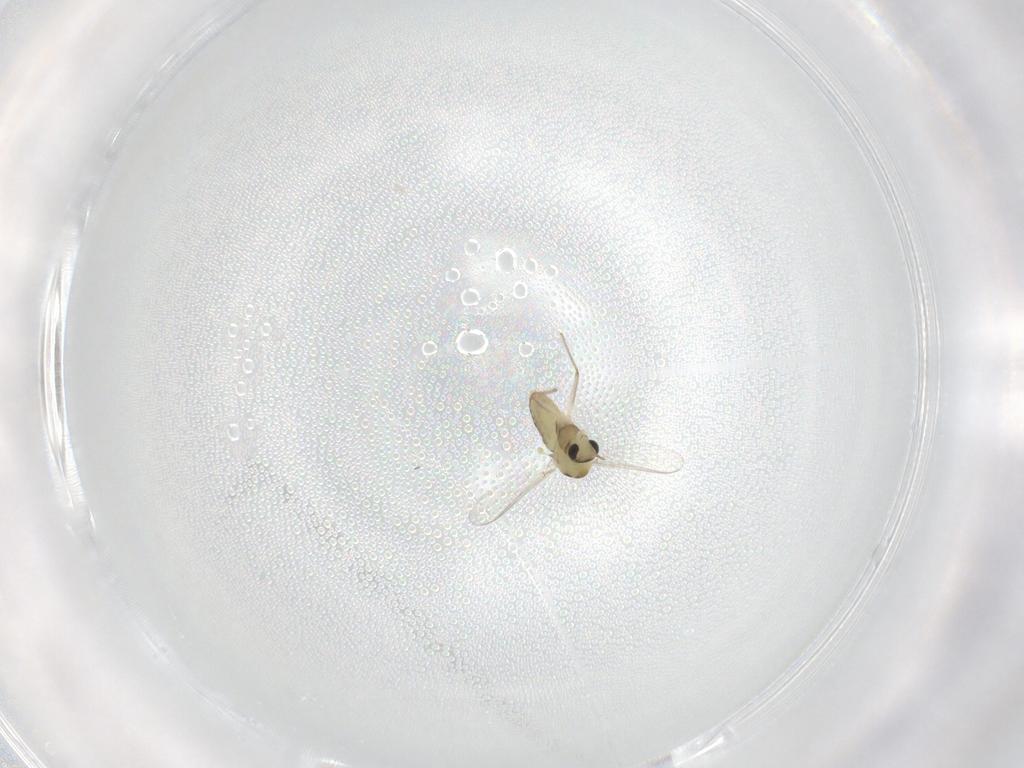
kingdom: Animalia
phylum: Arthropoda
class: Insecta
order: Diptera
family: Chironomidae
